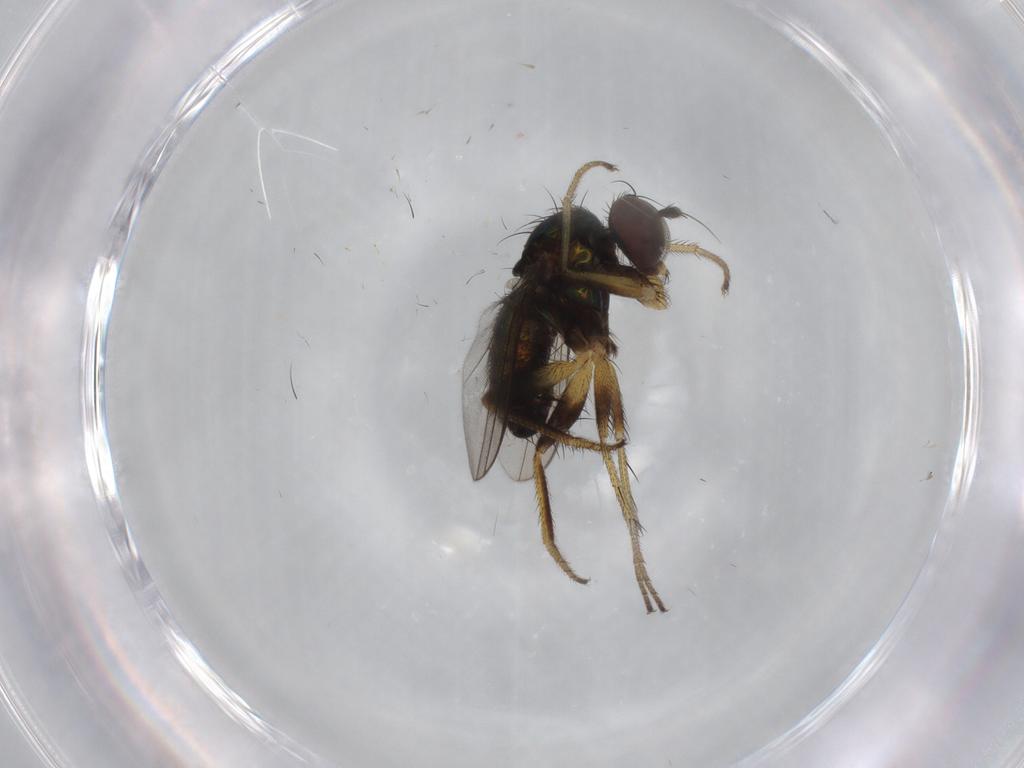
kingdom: Animalia
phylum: Arthropoda
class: Insecta
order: Diptera
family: Dolichopodidae
